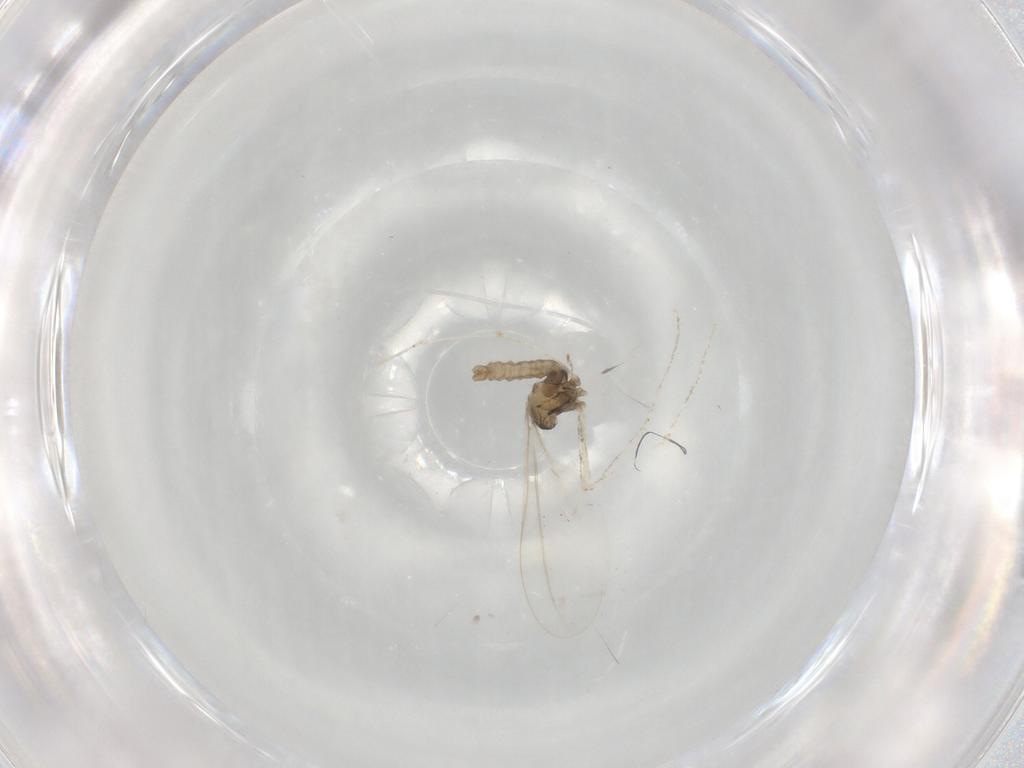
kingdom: Animalia
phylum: Arthropoda
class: Insecta
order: Diptera
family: Cecidomyiidae
